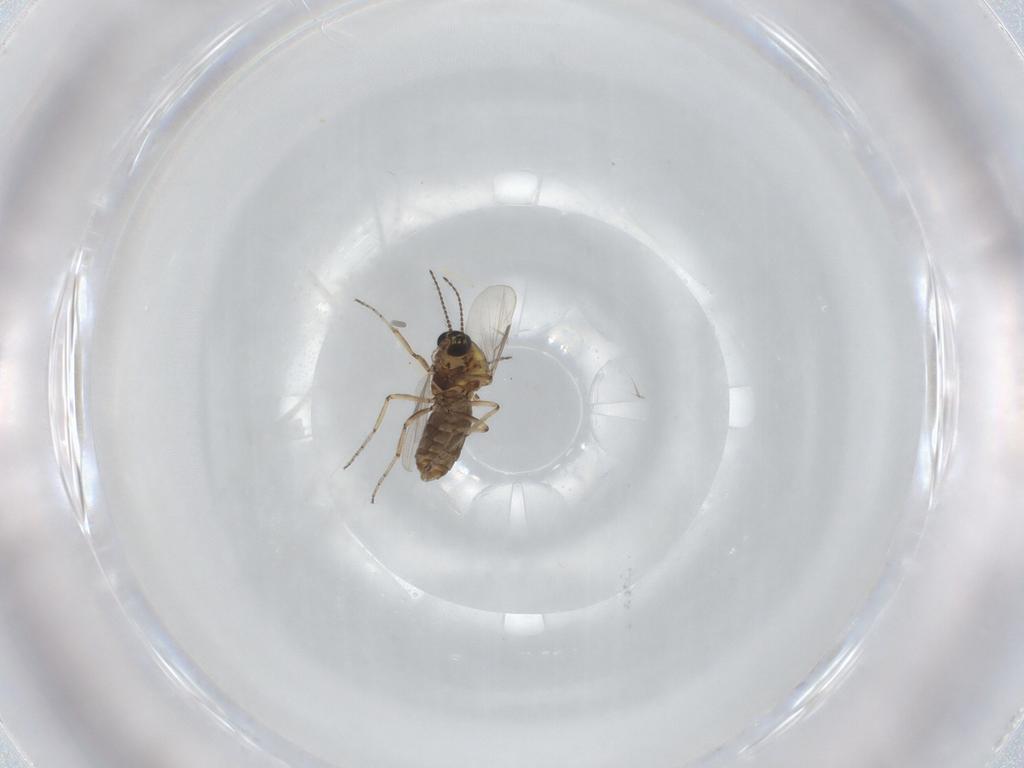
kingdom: Animalia
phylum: Arthropoda
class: Insecta
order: Diptera
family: Ceratopogonidae
